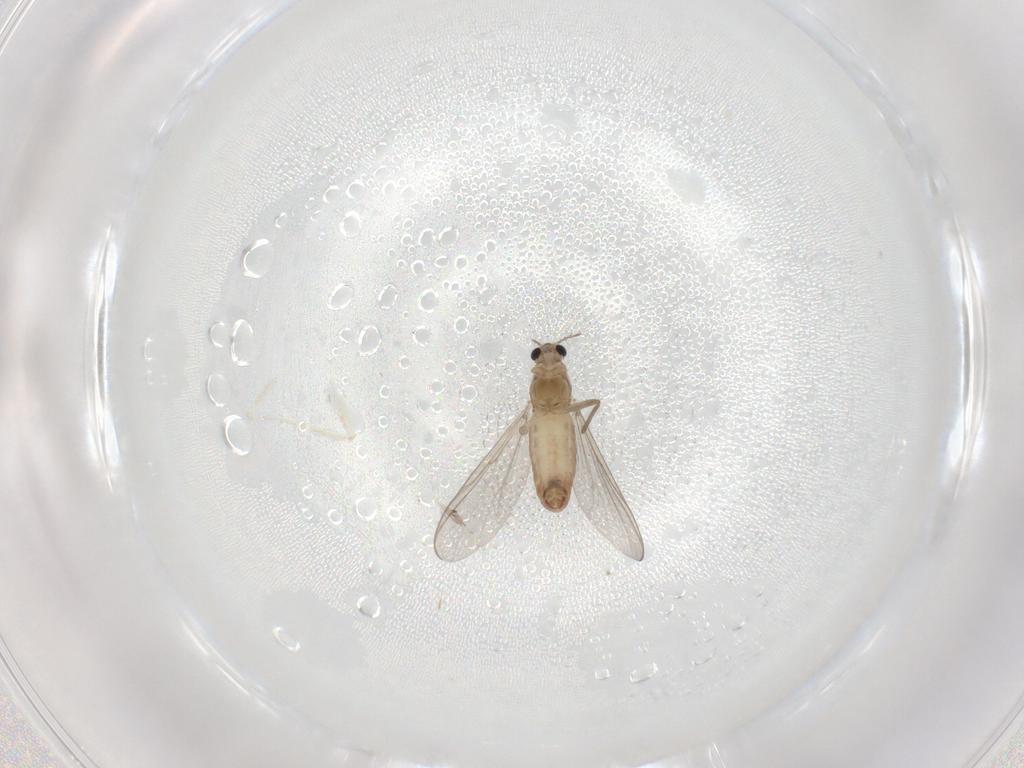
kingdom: Animalia
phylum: Arthropoda
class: Insecta
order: Diptera
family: Chironomidae
